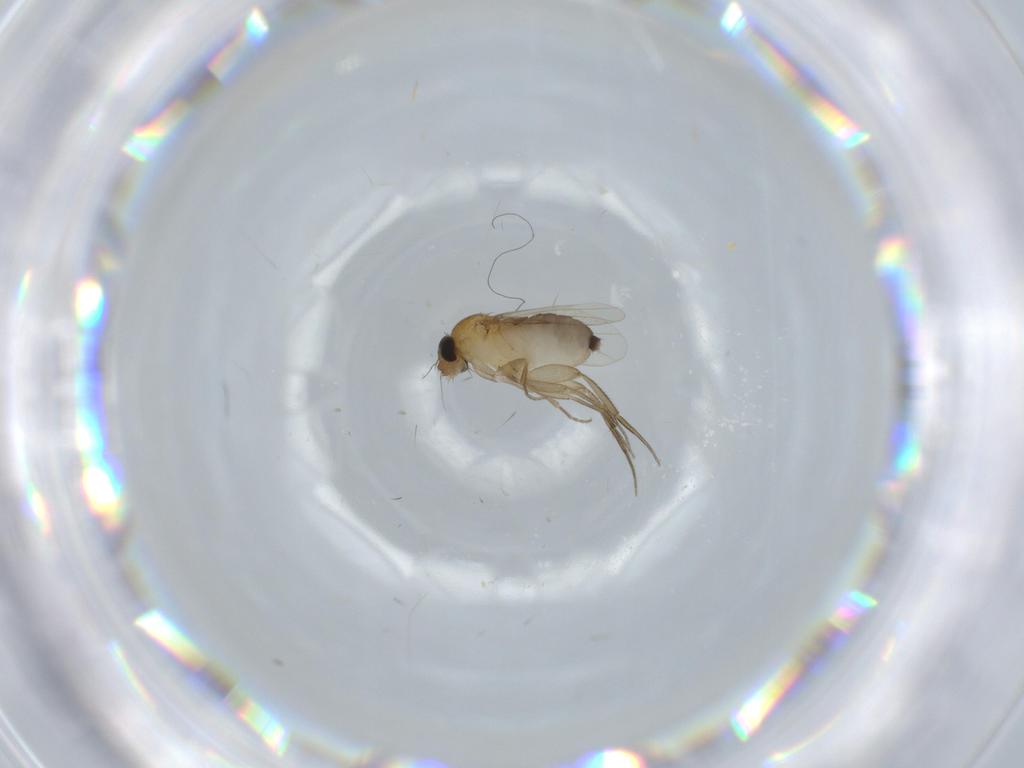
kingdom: Animalia
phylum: Arthropoda
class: Insecta
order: Diptera
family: Phoridae
